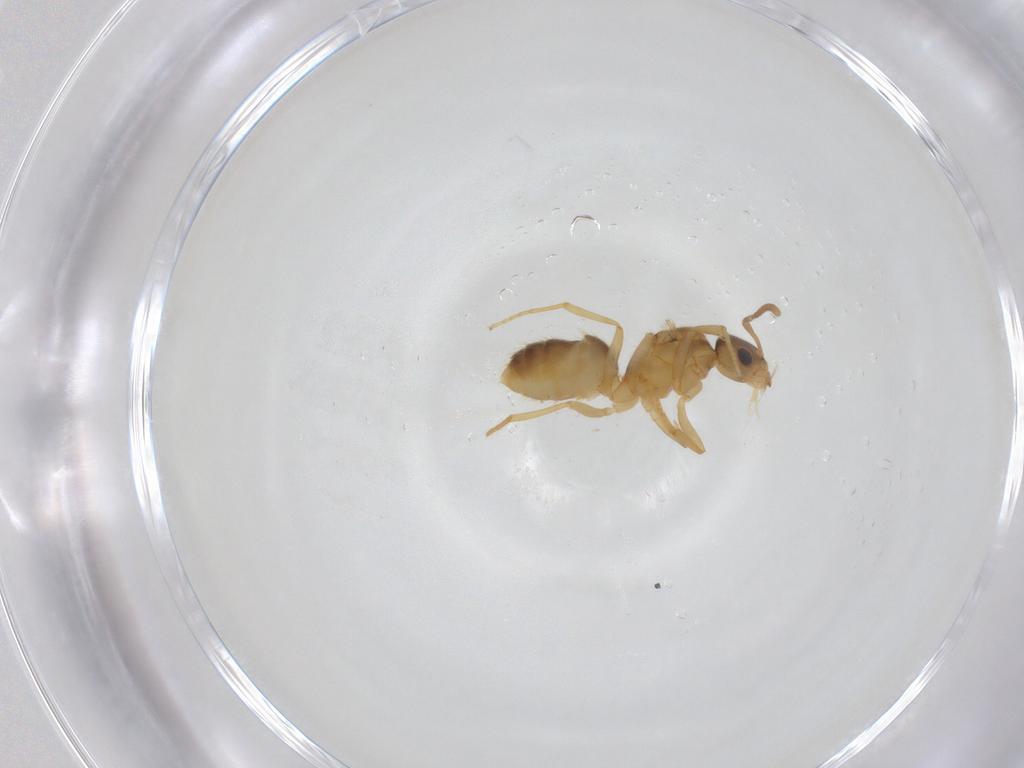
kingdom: Animalia
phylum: Arthropoda
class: Insecta
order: Hymenoptera
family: Formicidae
